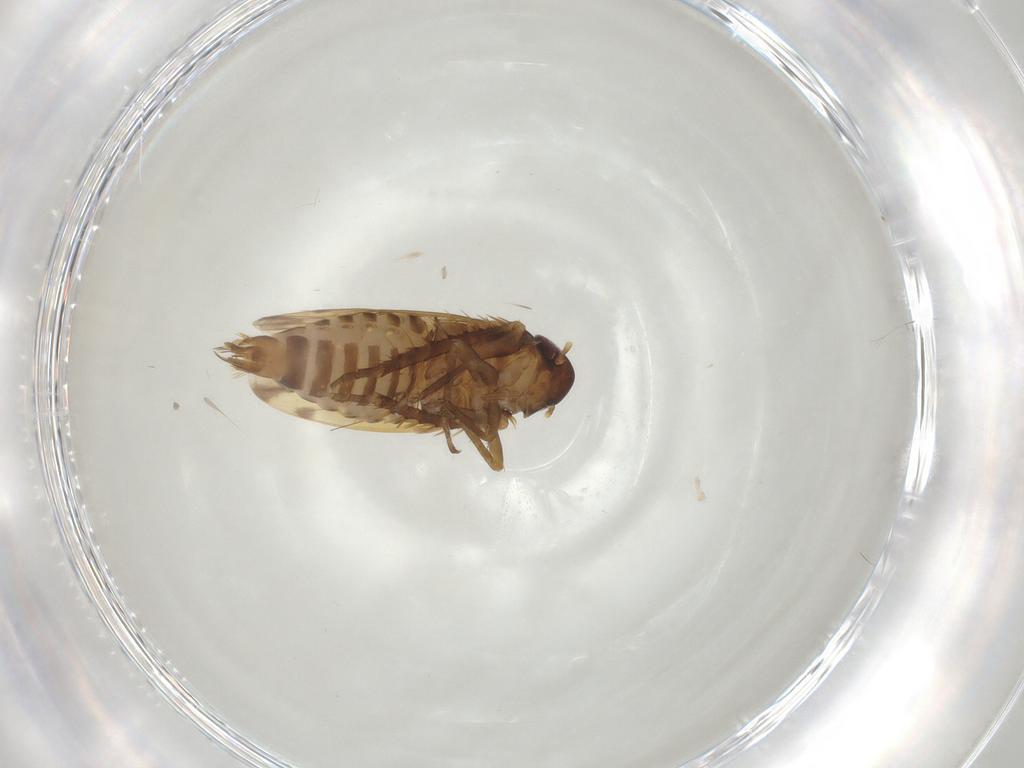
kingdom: Animalia
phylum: Arthropoda
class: Insecta
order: Hemiptera
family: Cicadellidae
